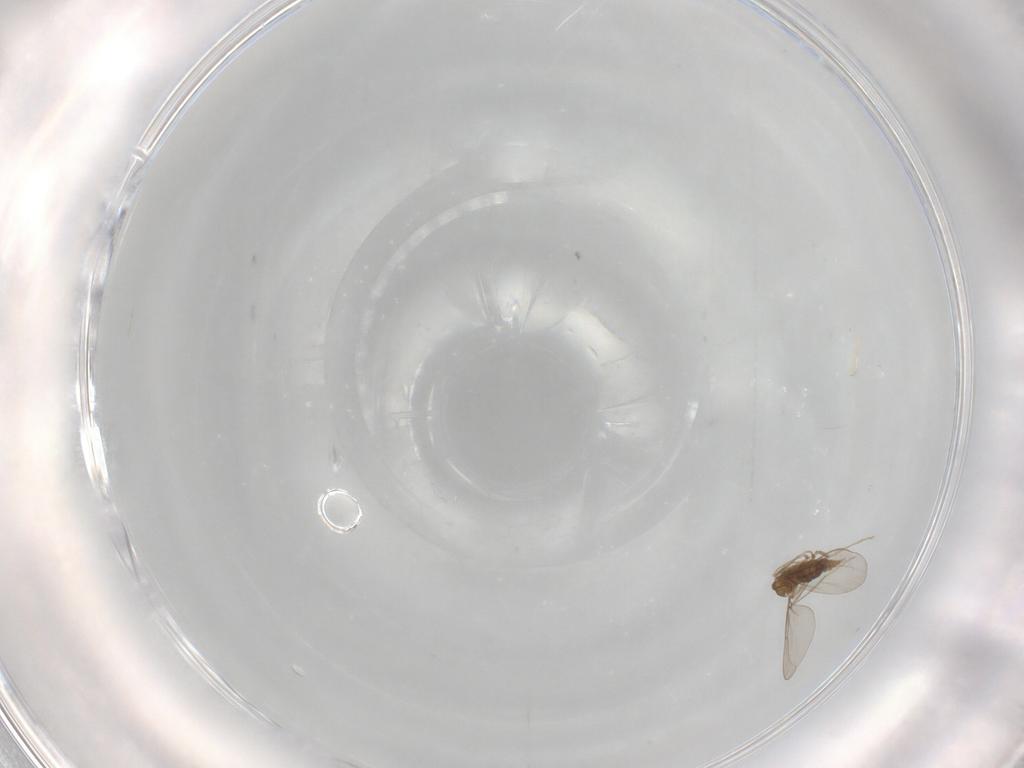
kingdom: Animalia
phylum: Arthropoda
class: Insecta
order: Diptera
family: Cecidomyiidae
